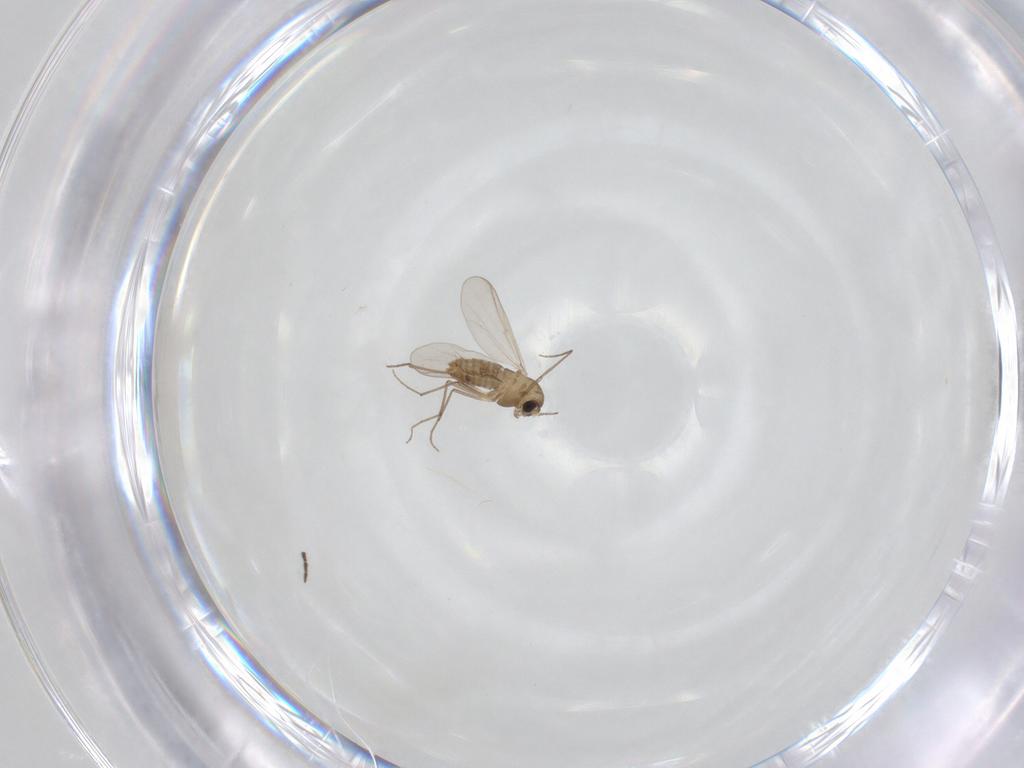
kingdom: Animalia
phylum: Arthropoda
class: Insecta
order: Diptera
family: Chironomidae
